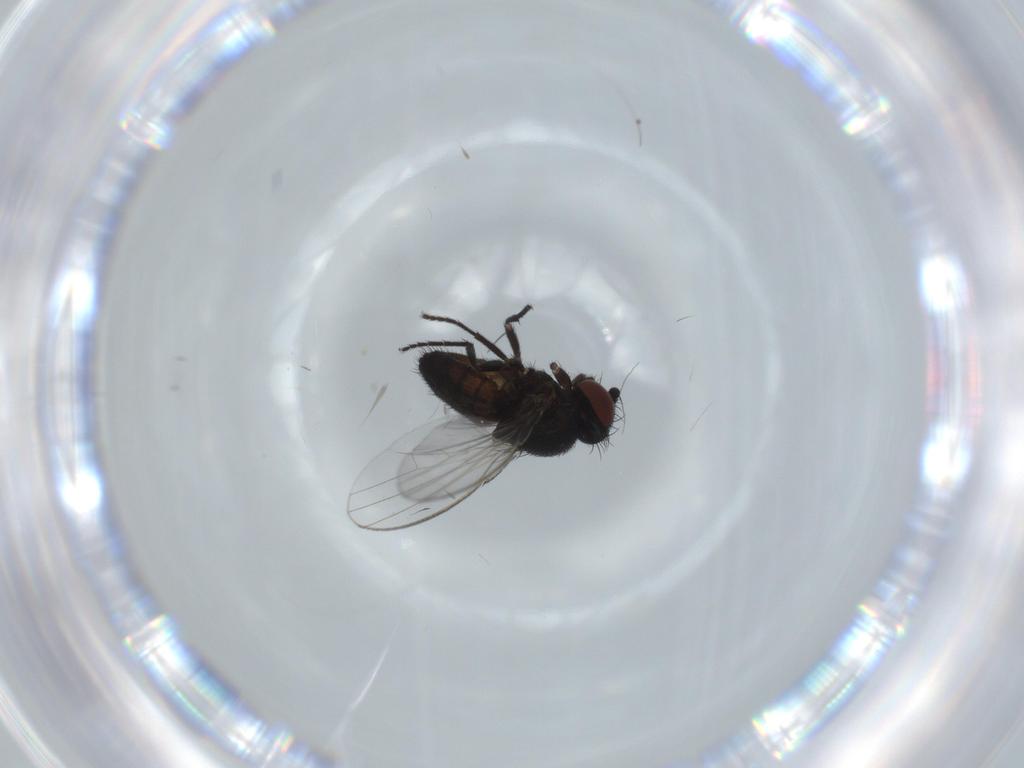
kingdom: Animalia
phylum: Arthropoda
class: Insecta
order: Diptera
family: Milichiidae
